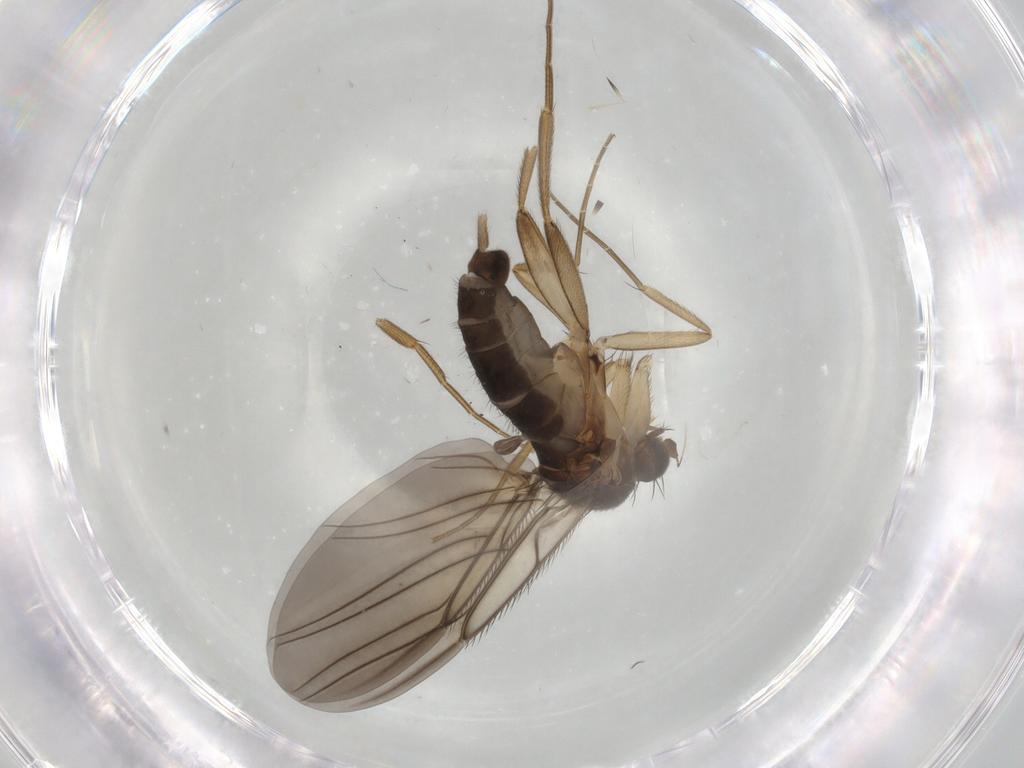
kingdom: Animalia
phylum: Arthropoda
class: Insecta
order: Diptera
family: Phoridae
